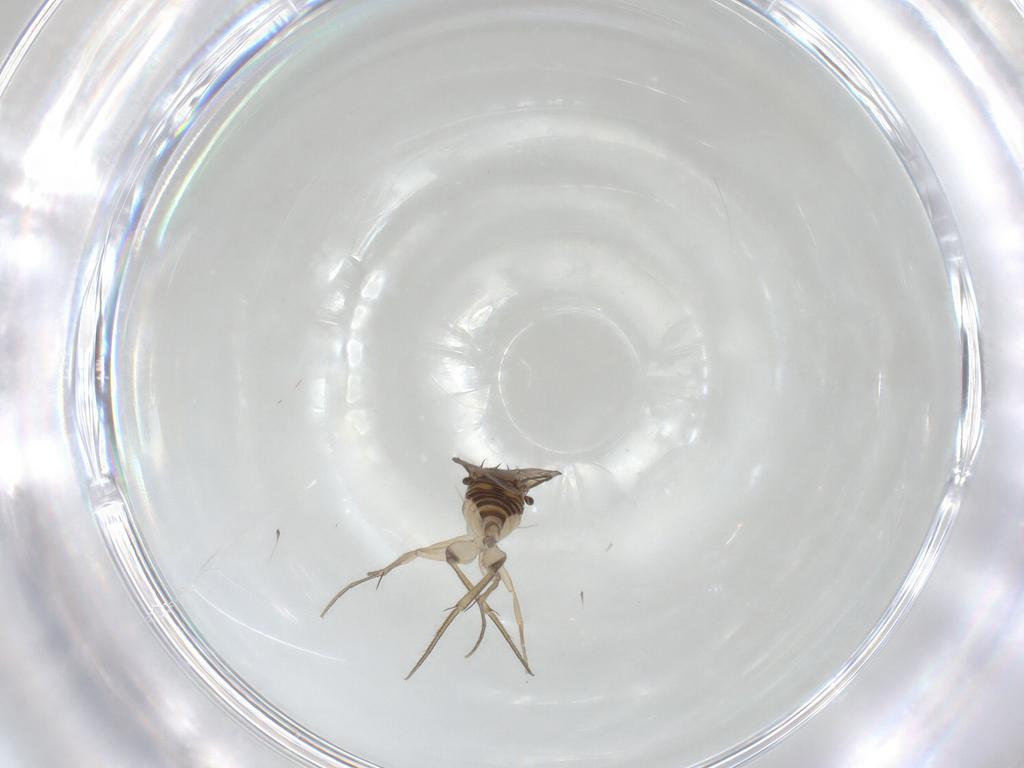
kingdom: Animalia
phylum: Arthropoda
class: Insecta
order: Diptera
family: Phoridae
